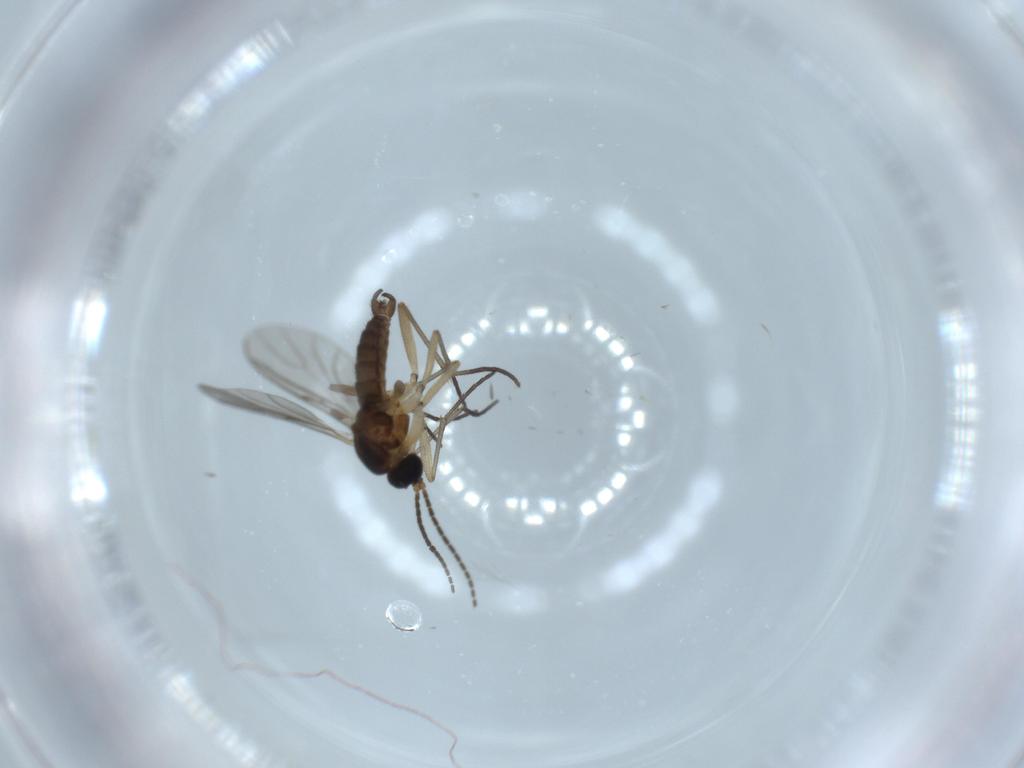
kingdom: Animalia
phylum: Arthropoda
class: Insecta
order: Diptera
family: Sciaridae
